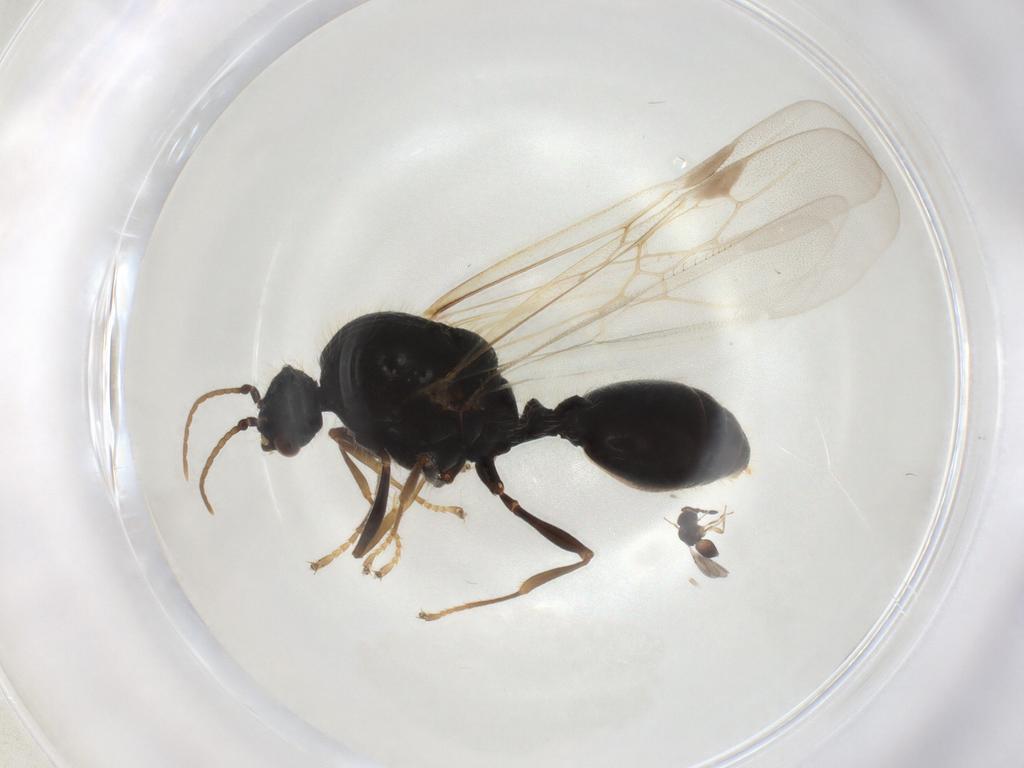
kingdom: Animalia
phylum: Arthropoda
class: Insecta
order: Hymenoptera
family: Formicidae
